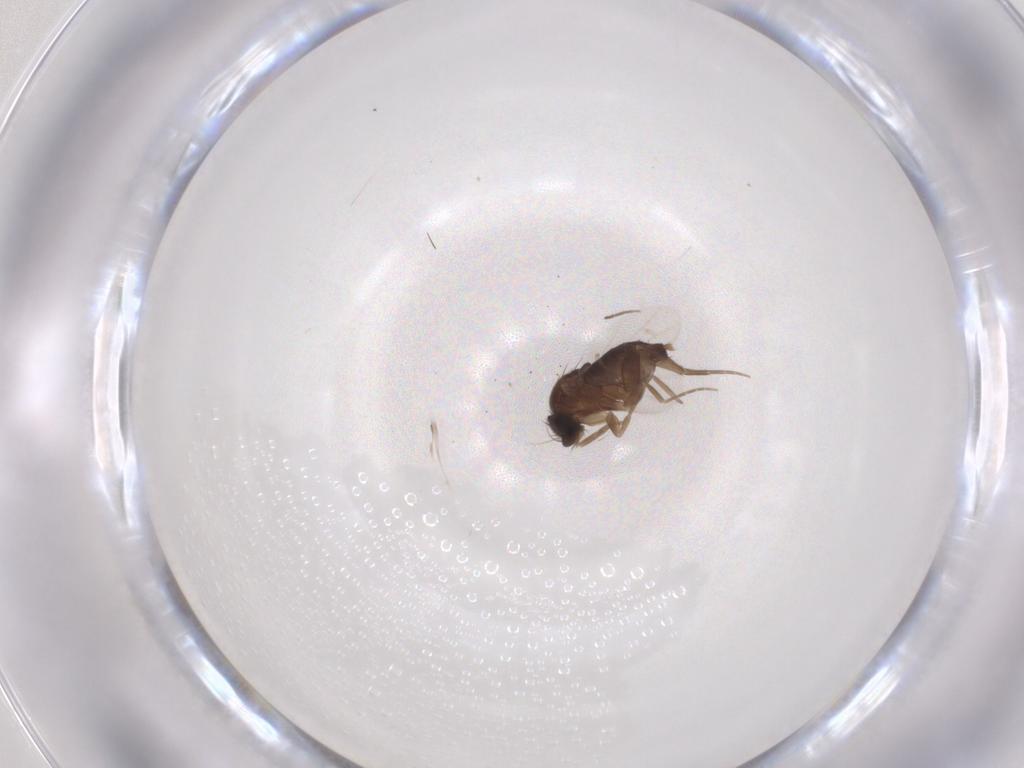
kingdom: Animalia
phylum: Arthropoda
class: Insecta
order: Diptera
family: Phoridae
